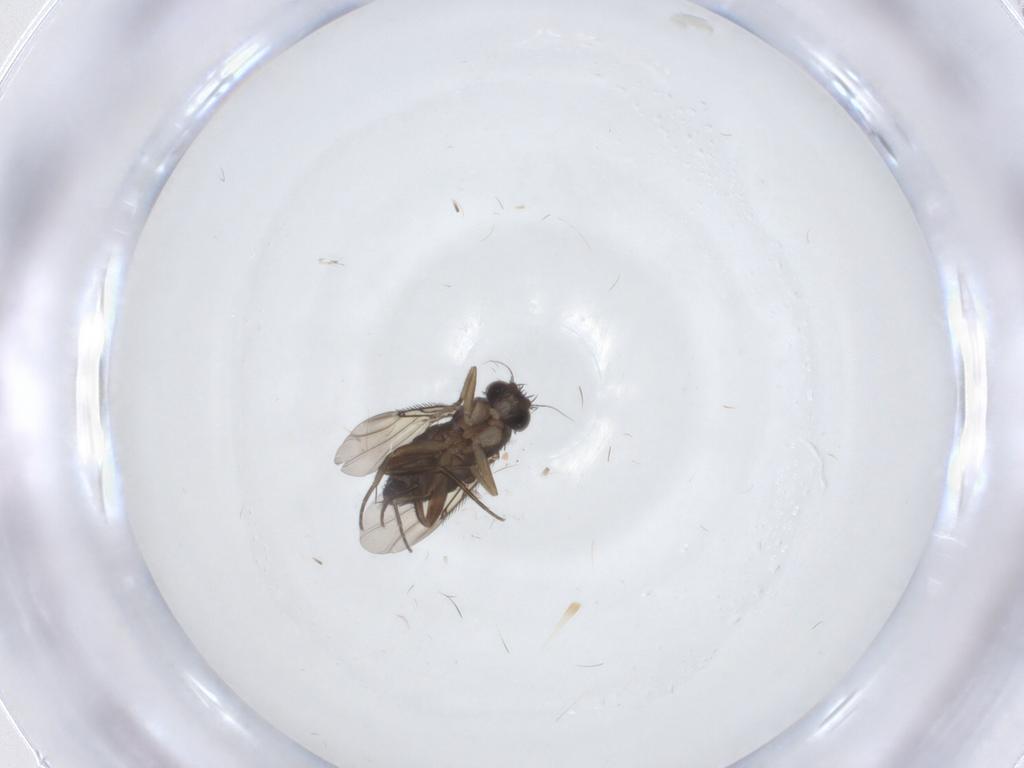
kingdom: Animalia
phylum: Arthropoda
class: Insecta
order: Diptera
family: Phoridae
